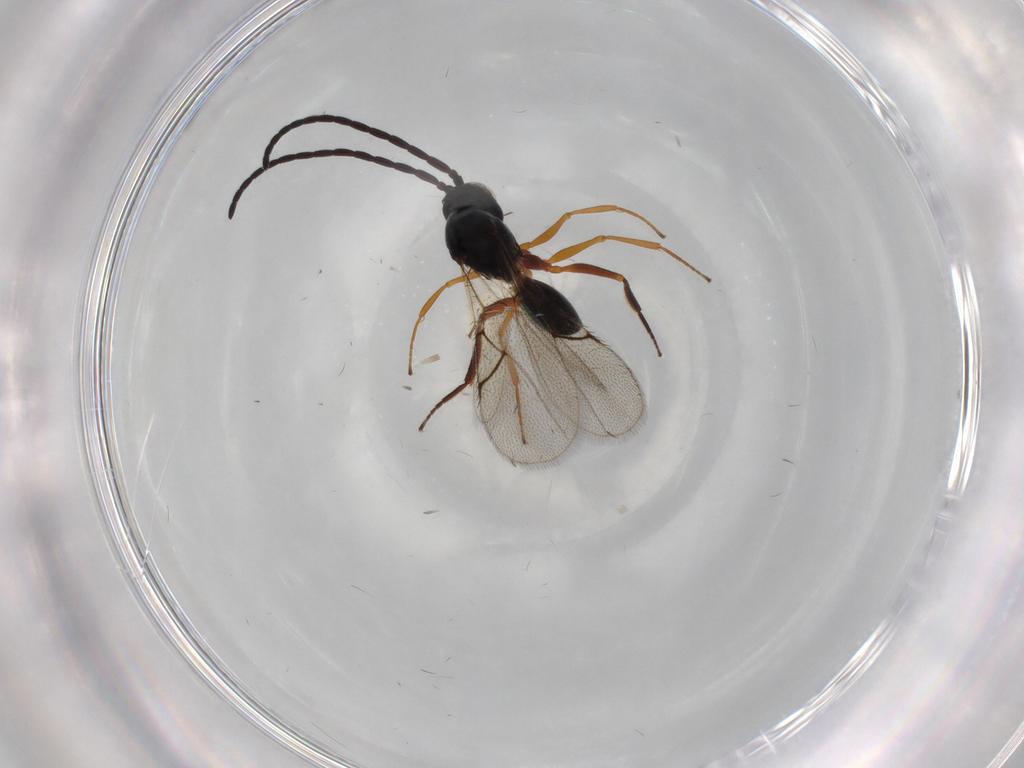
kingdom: Animalia
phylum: Arthropoda
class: Insecta
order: Hymenoptera
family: Figitidae
